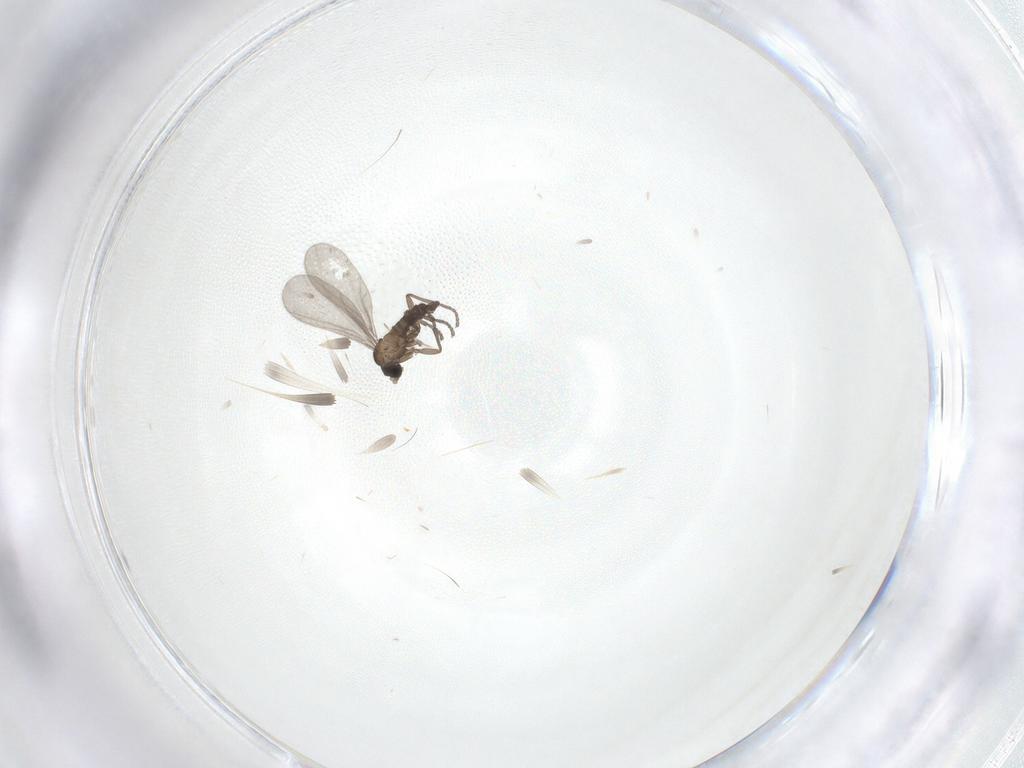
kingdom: Animalia
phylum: Arthropoda
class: Insecta
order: Diptera
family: Sciaridae
